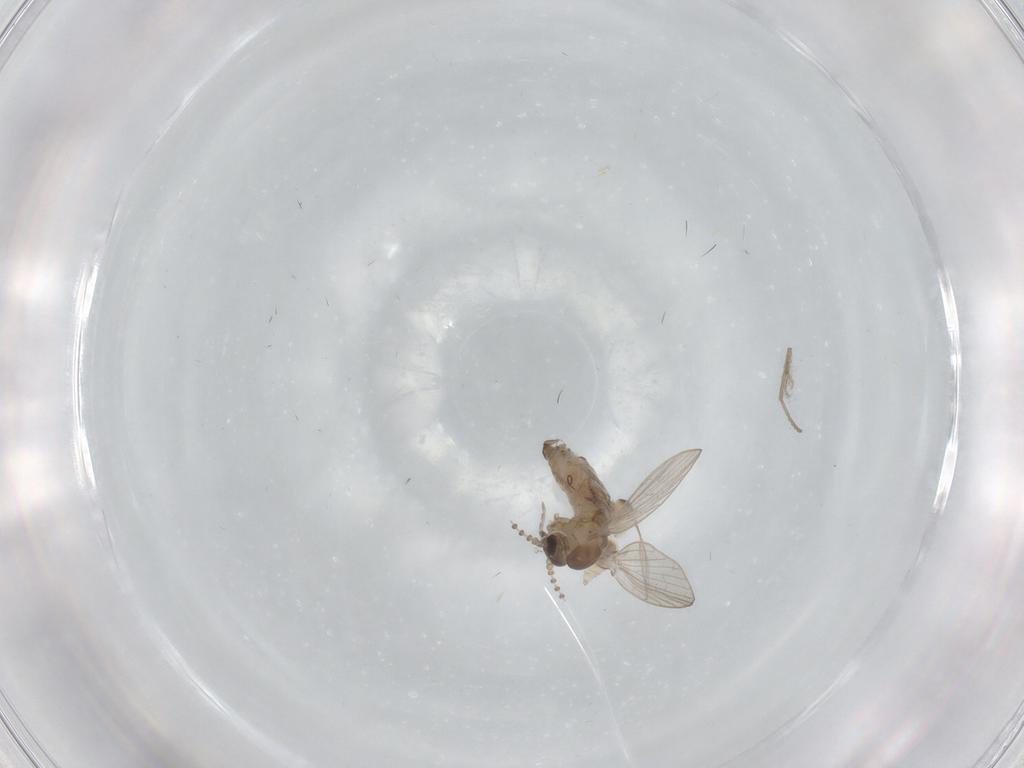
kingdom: Animalia
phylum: Arthropoda
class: Insecta
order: Diptera
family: Psychodidae
